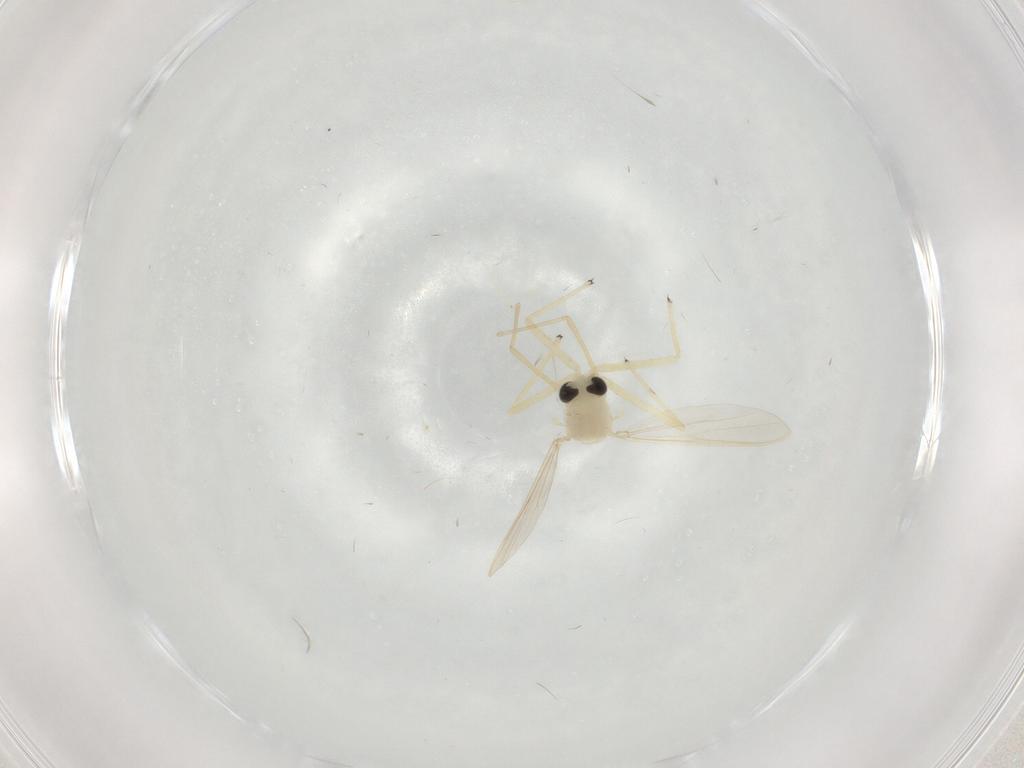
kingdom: Animalia
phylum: Arthropoda
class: Insecta
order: Diptera
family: Chironomidae
